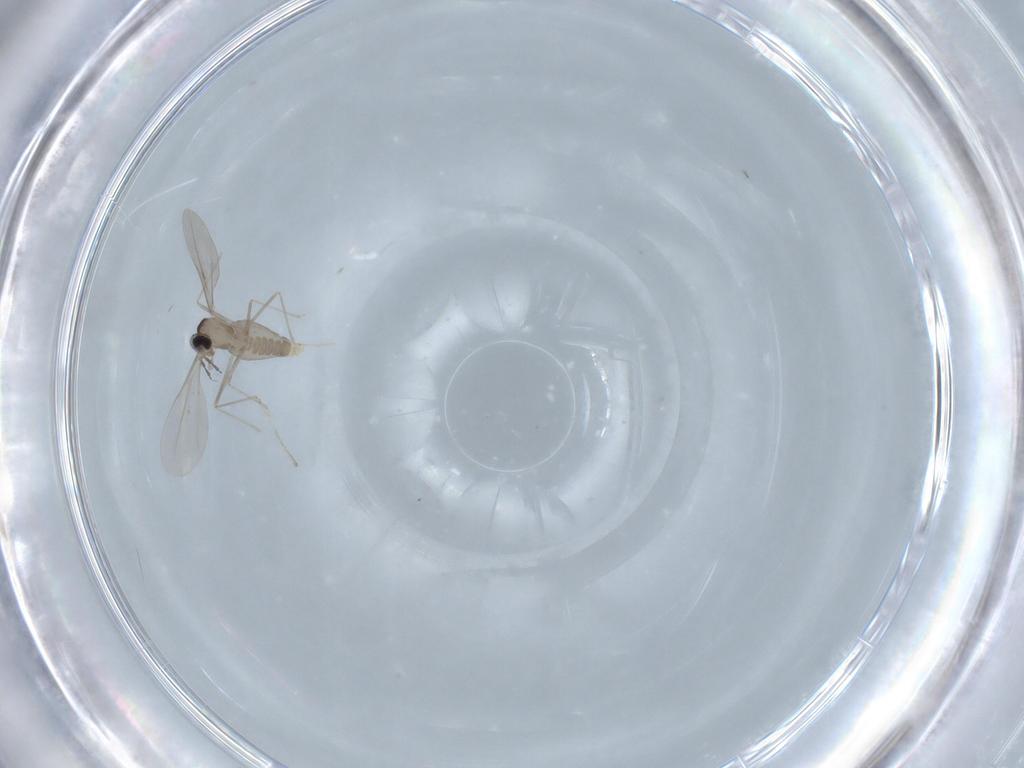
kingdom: Animalia
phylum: Arthropoda
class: Insecta
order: Diptera
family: Cecidomyiidae
